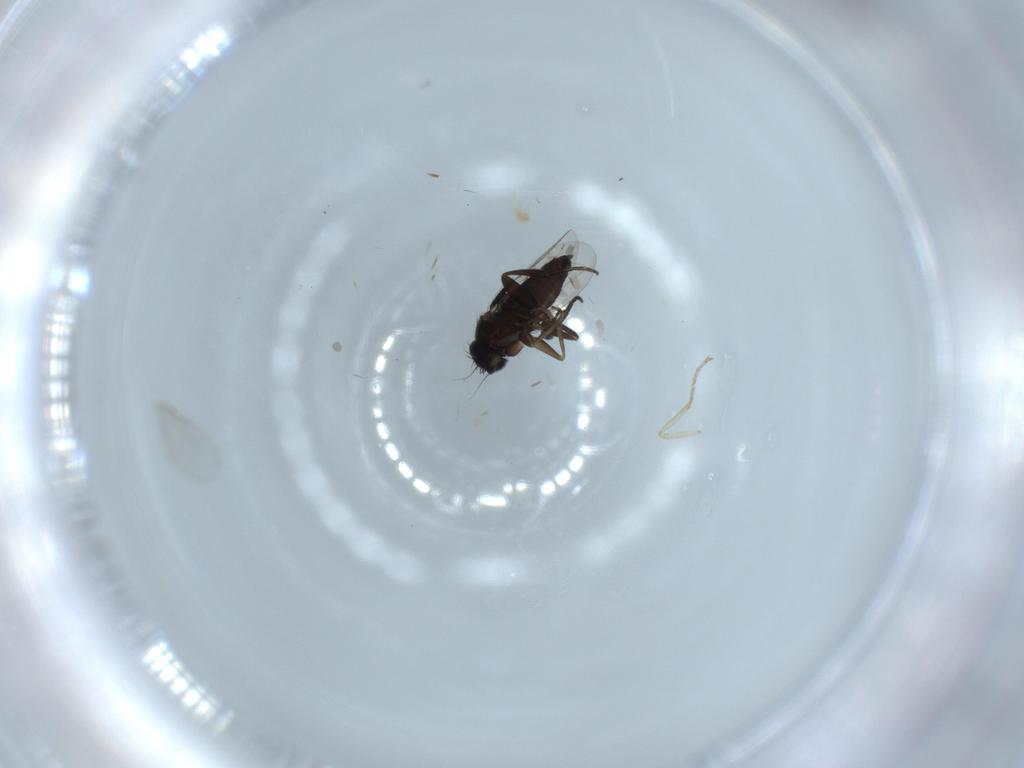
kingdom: Animalia
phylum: Arthropoda
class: Insecta
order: Diptera
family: Phoridae
